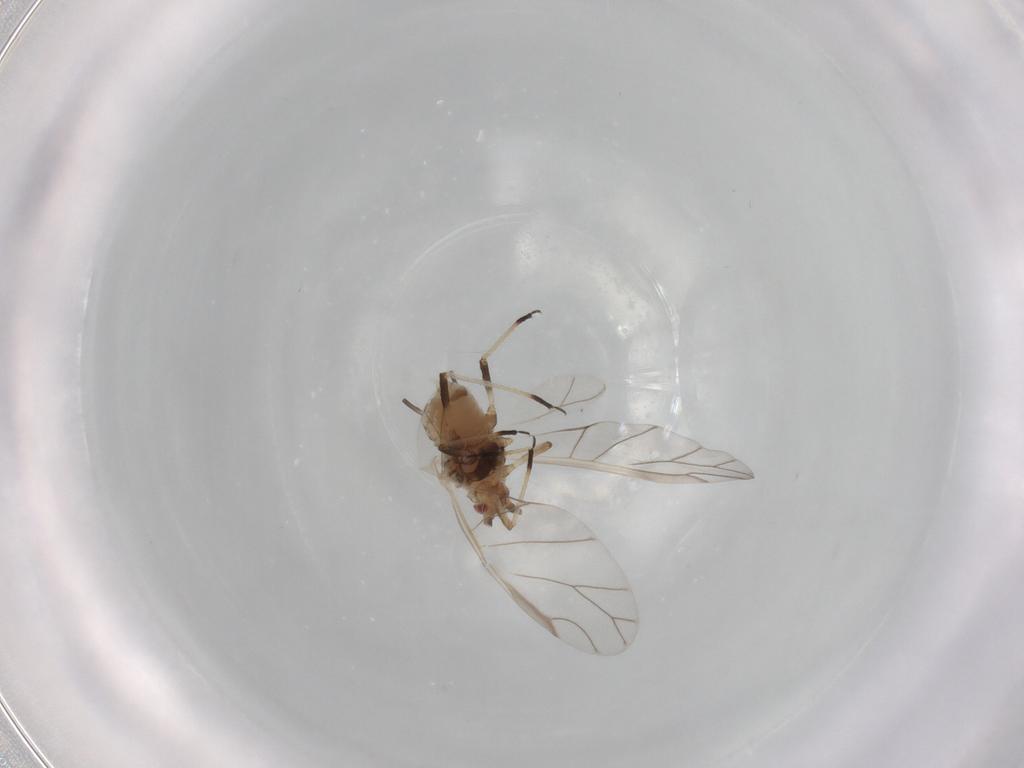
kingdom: Animalia
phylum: Arthropoda
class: Insecta
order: Hemiptera
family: Aphididae
